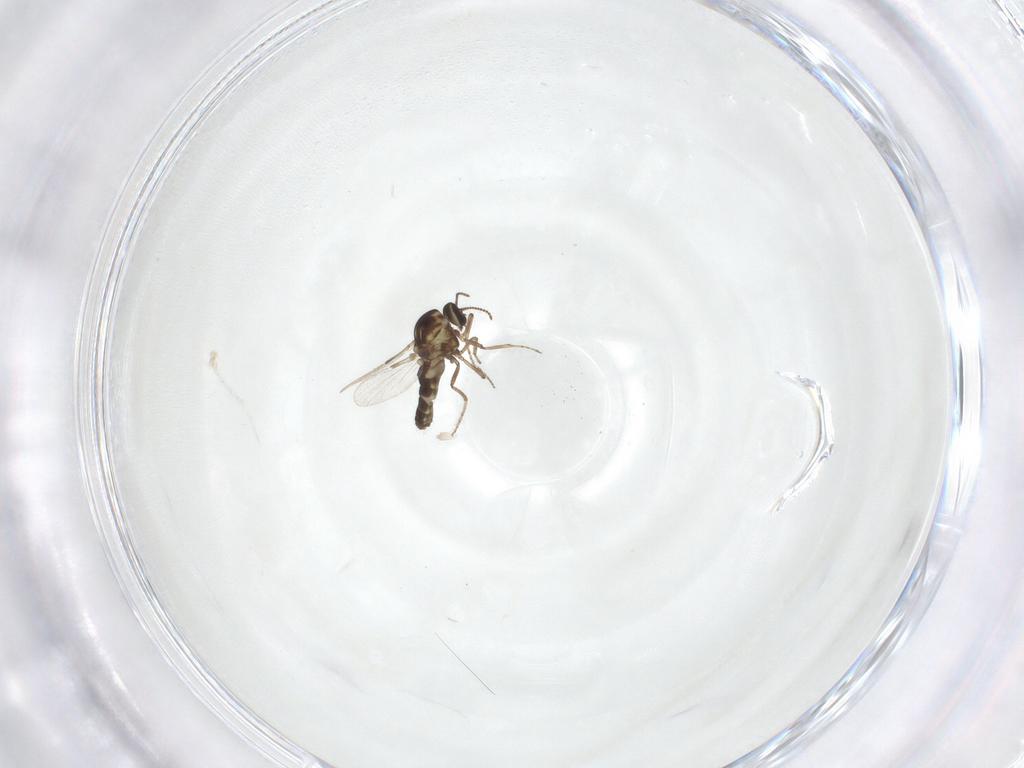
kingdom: Animalia
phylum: Arthropoda
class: Insecta
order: Diptera
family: Ceratopogonidae
